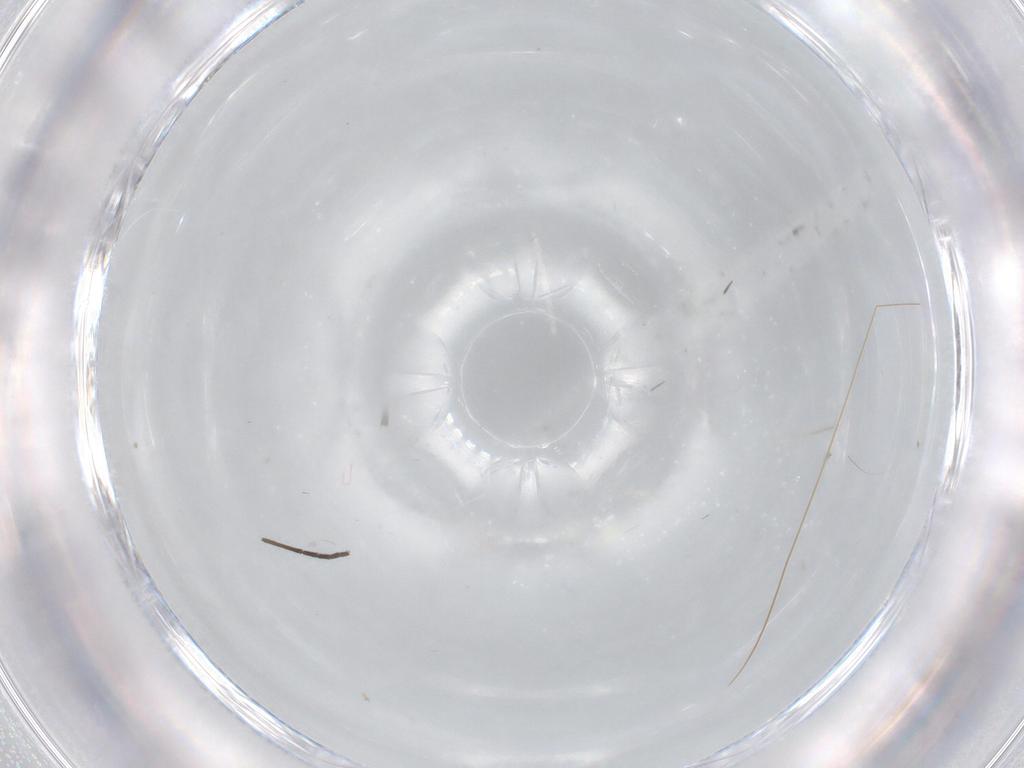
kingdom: Animalia
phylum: Arthropoda
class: Insecta
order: Diptera
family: Sciaridae
